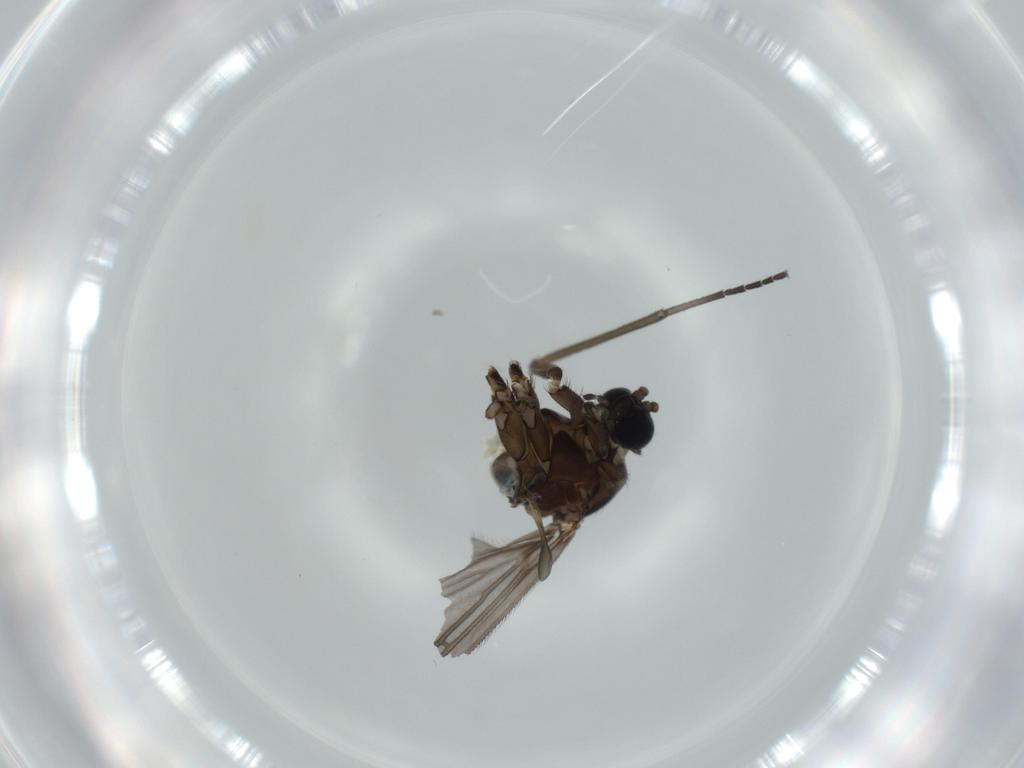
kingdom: Animalia
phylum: Arthropoda
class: Insecta
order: Diptera
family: Sciaridae
